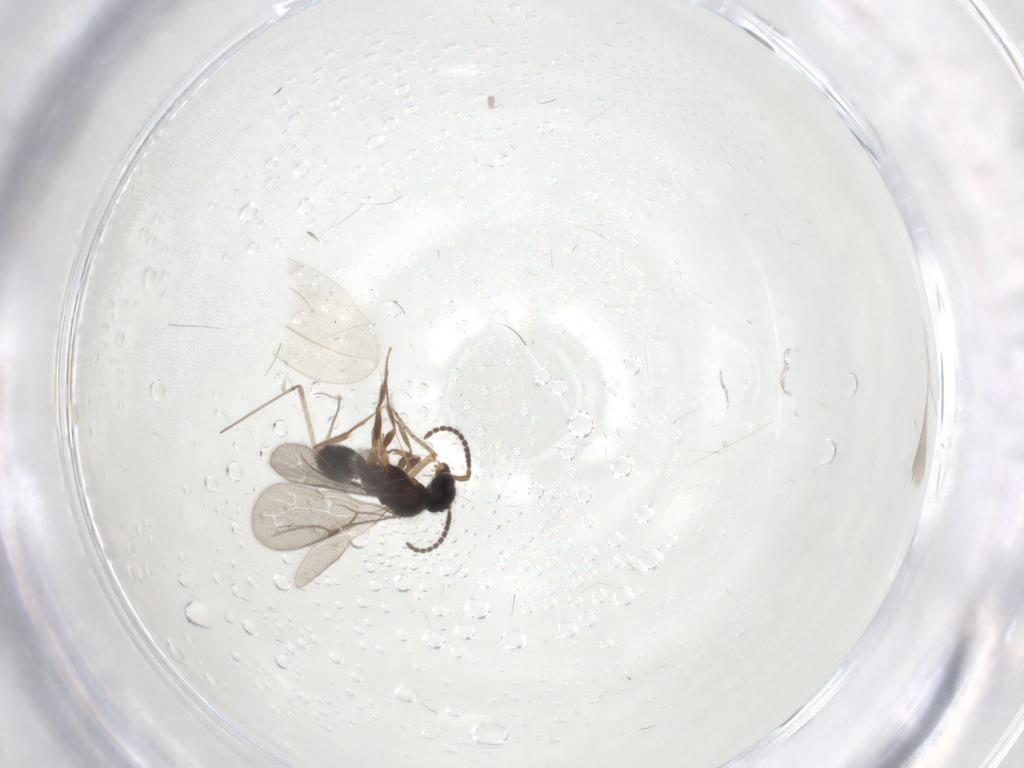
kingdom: Animalia
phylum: Arthropoda
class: Insecta
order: Hymenoptera
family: Bethylidae
